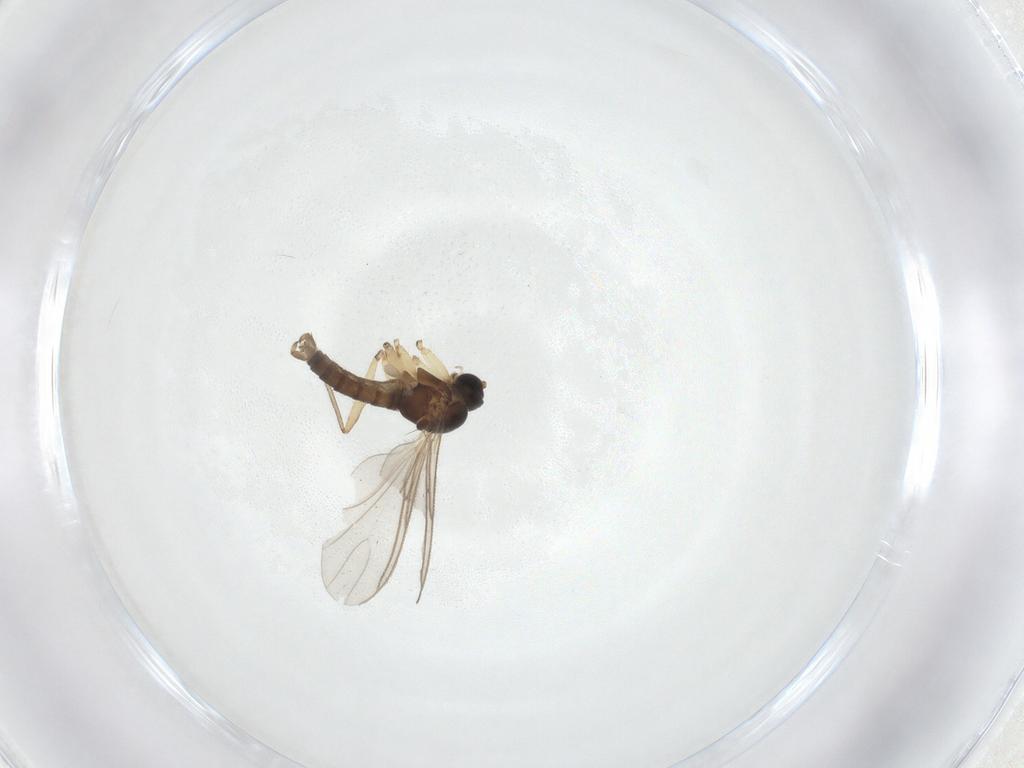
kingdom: Animalia
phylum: Arthropoda
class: Insecta
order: Diptera
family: Sciaridae
